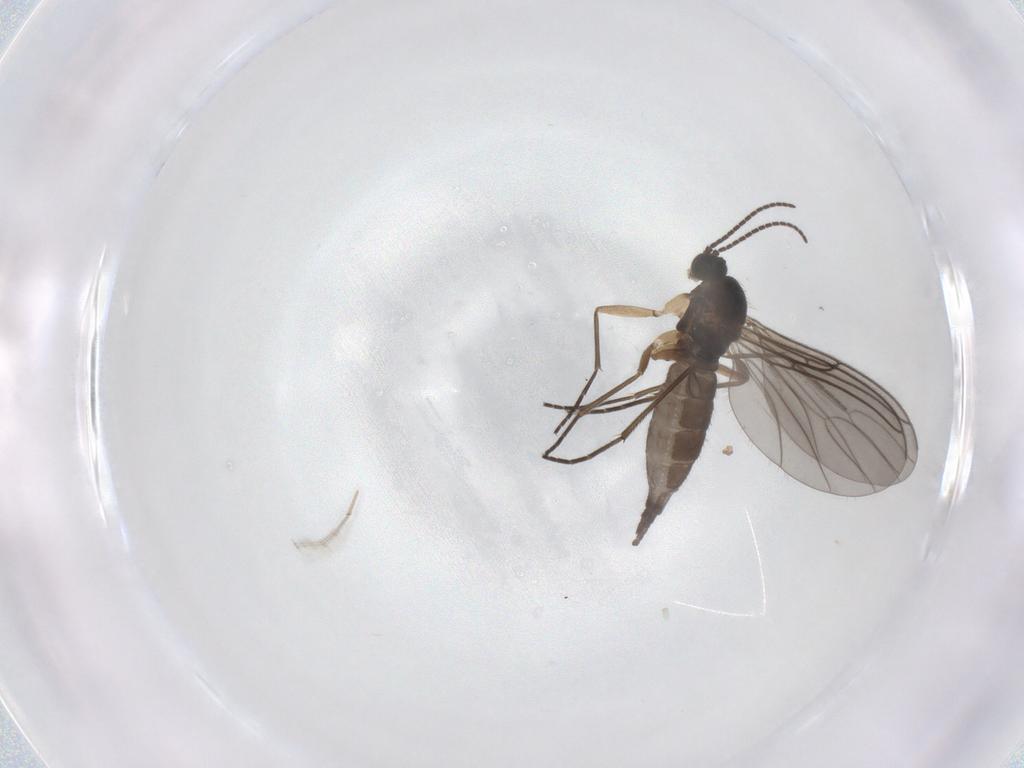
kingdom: Animalia
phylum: Arthropoda
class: Insecta
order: Diptera
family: Sciaridae
